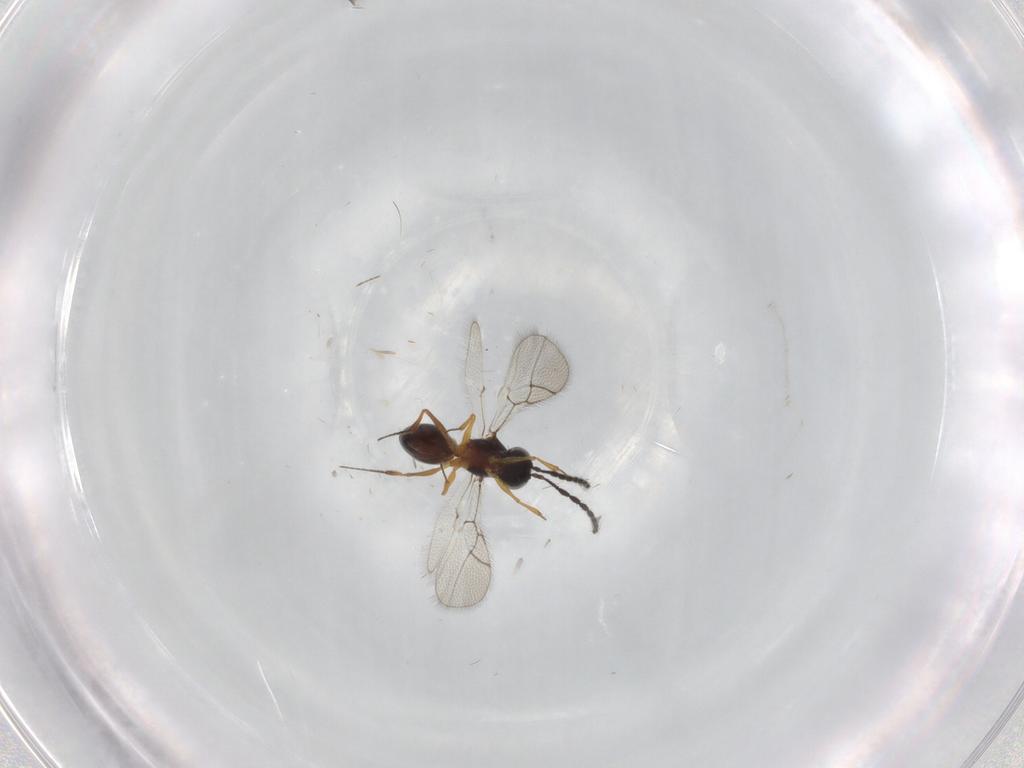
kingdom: Animalia
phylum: Arthropoda
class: Insecta
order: Hymenoptera
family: Figitidae
